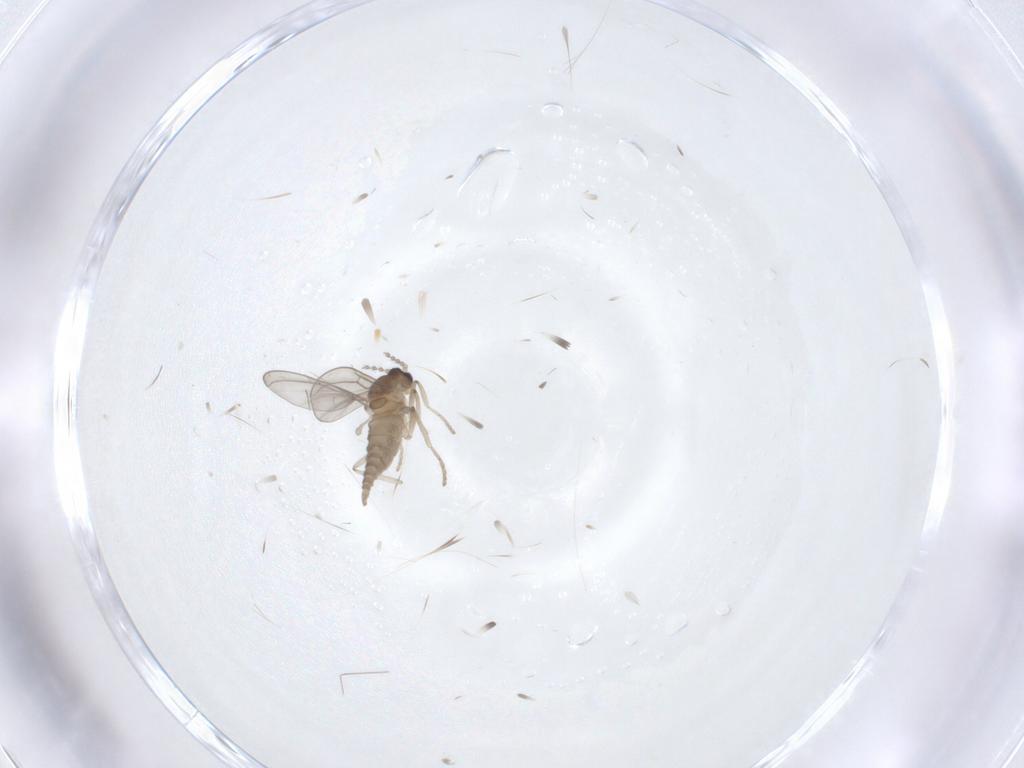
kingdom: Animalia
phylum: Arthropoda
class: Insecta
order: Diptera
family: Cecidomyiidae
